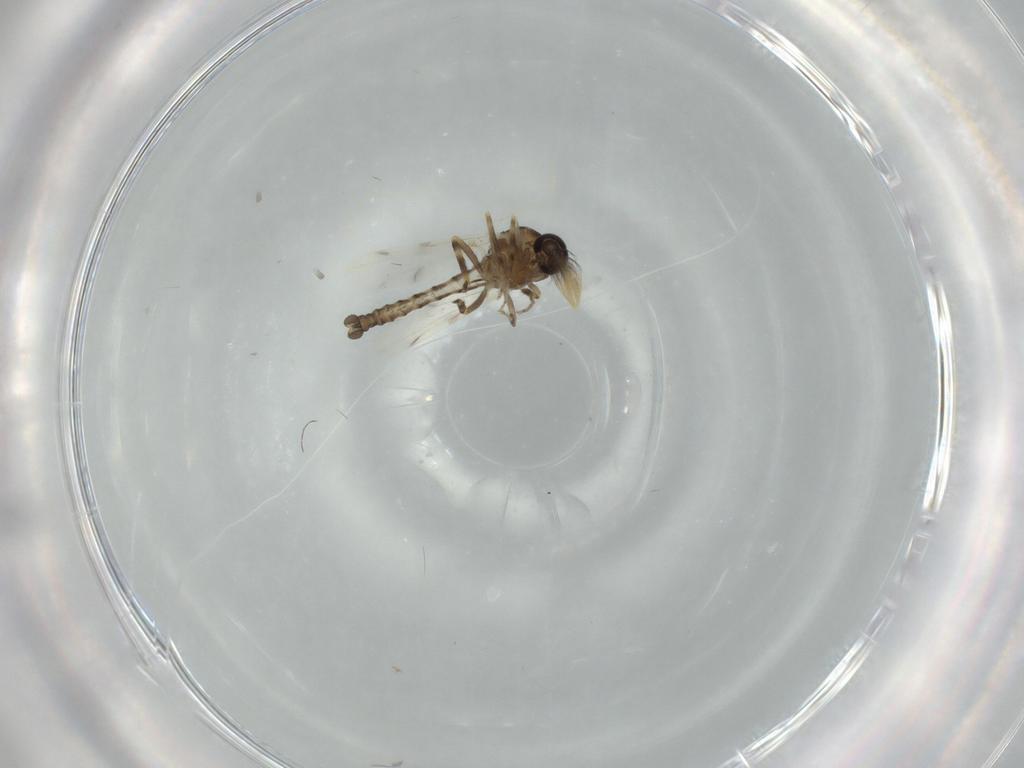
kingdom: Animalia
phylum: Arthropoda
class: Insecta
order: Diptera
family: Ceratopogonidae
